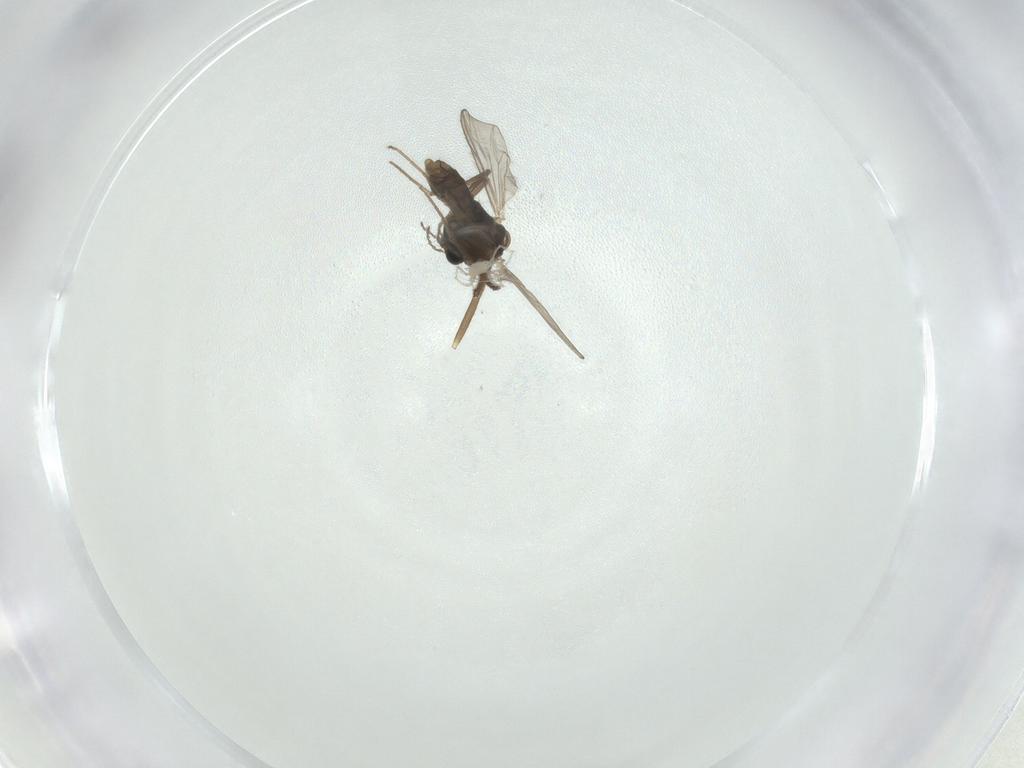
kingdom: Animalia
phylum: Arthropoda
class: Insecta
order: Diptera
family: Chironomidae
